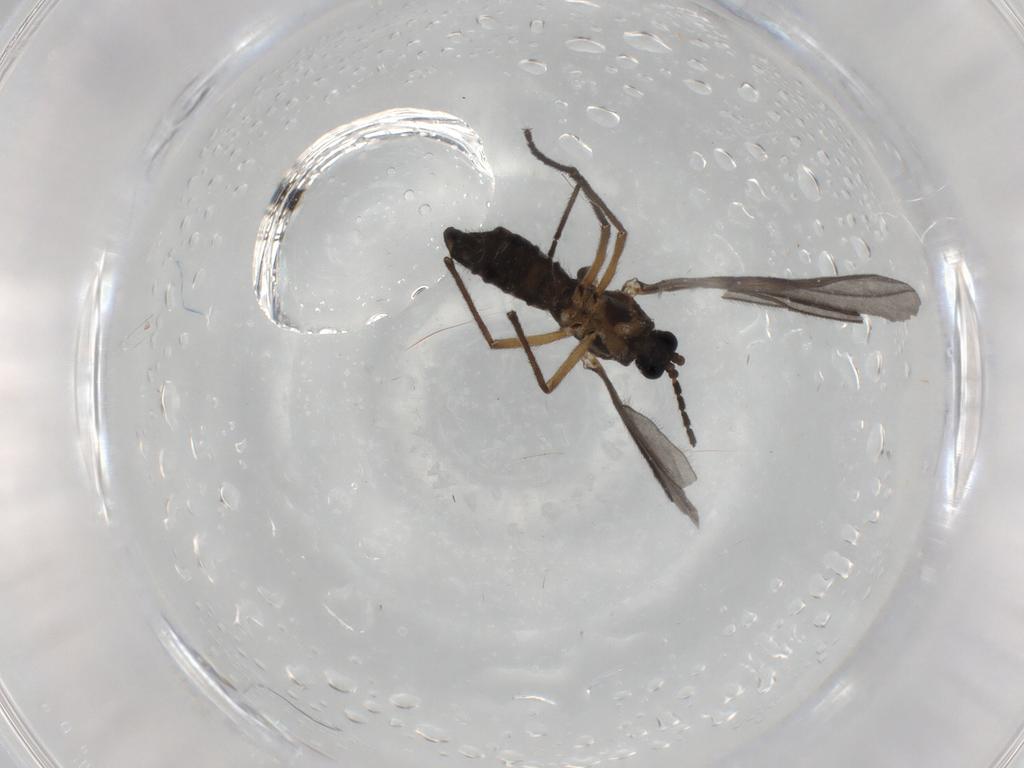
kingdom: Animalia
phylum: Arthropoda
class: Insecta
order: Diptera
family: Sciaridae
